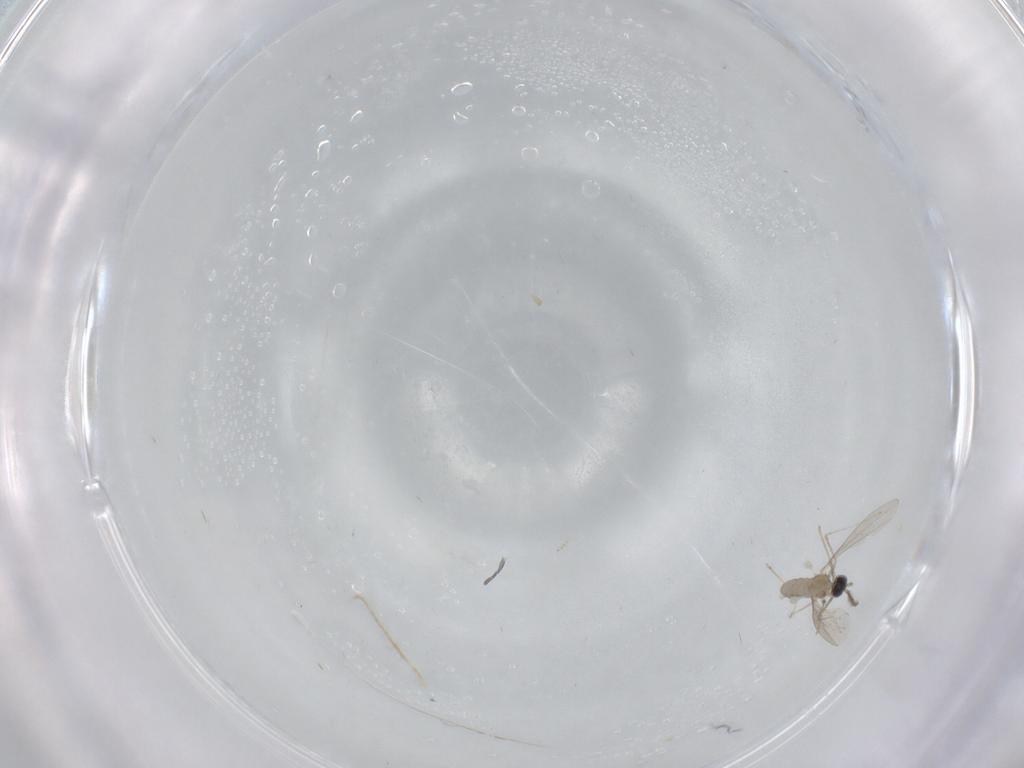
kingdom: Animalia
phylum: Arthropoda
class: Insecta
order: Diptera
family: Cecidomyiidae
